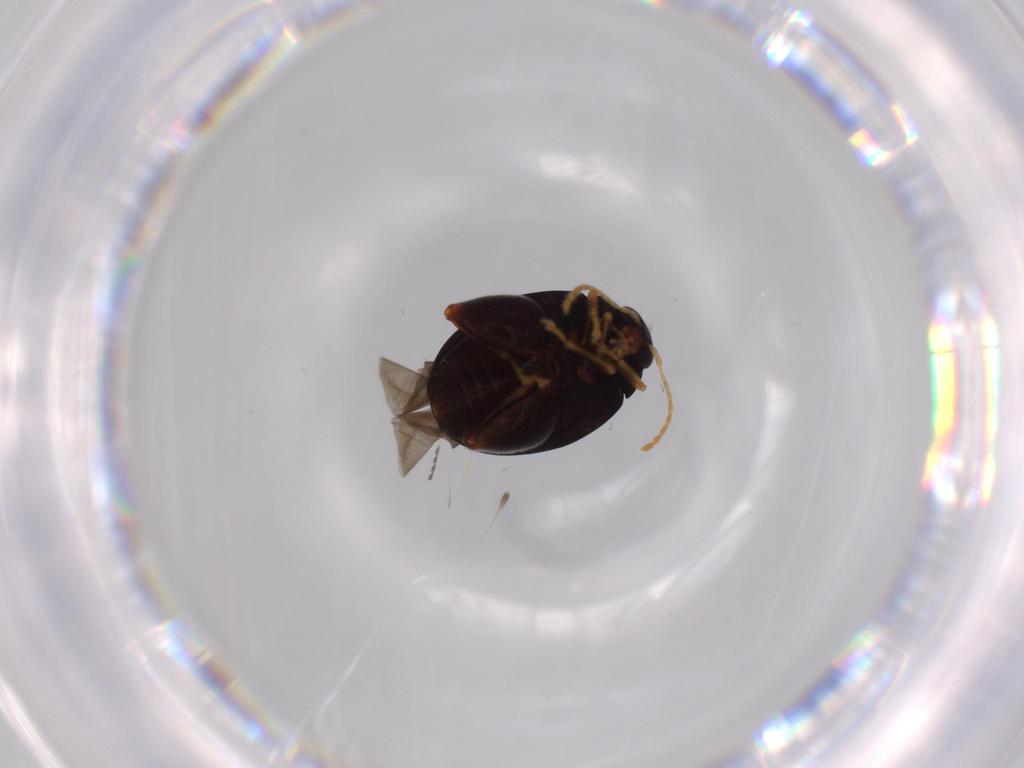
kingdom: Animalia
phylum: Arthropoda
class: Insecta
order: Coleoptera
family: Chrysomelidae
